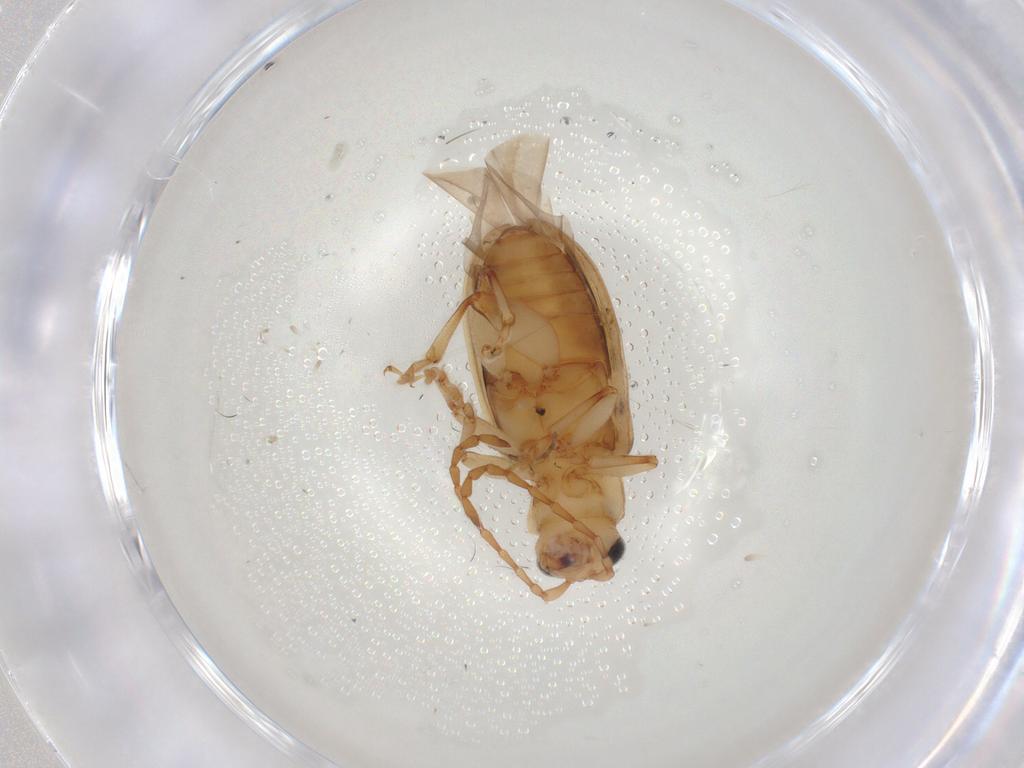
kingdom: Animalia
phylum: Arthropoda
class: Insecta
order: Coleoptera
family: Chrysomelidae
